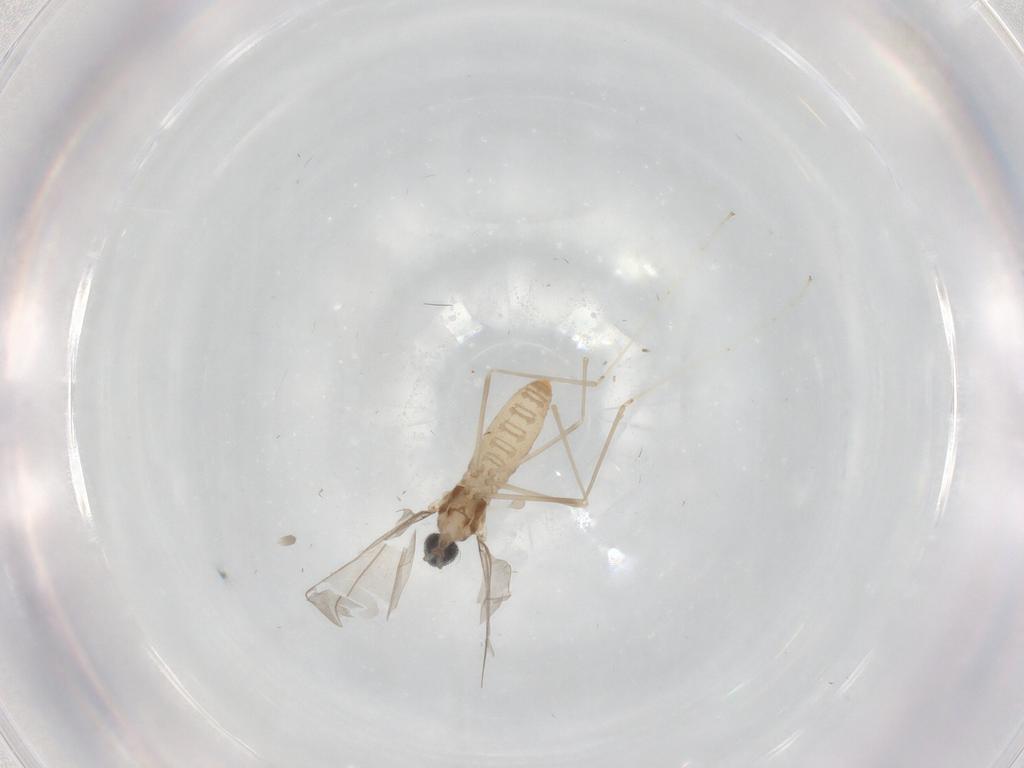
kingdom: Animalia
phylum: Arthropoda
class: Insecta
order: Diptera
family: Cecidomyiidae
